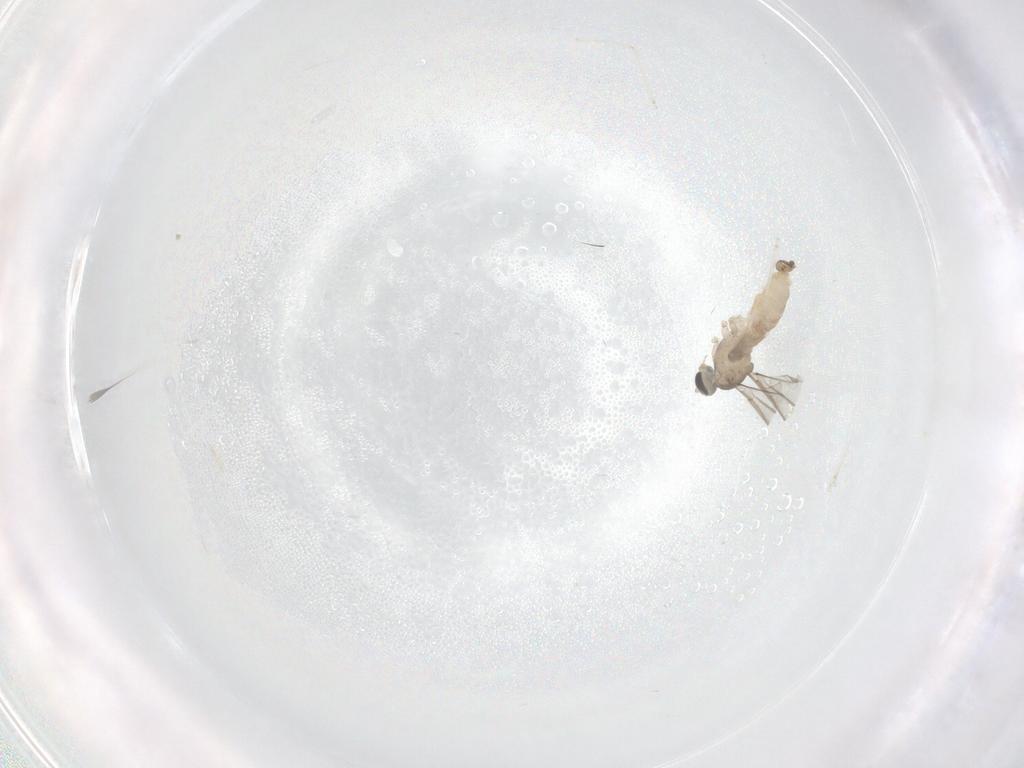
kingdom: Animalia
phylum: Arthropoda
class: Insecta
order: Diptera
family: Cecidomyiidae
